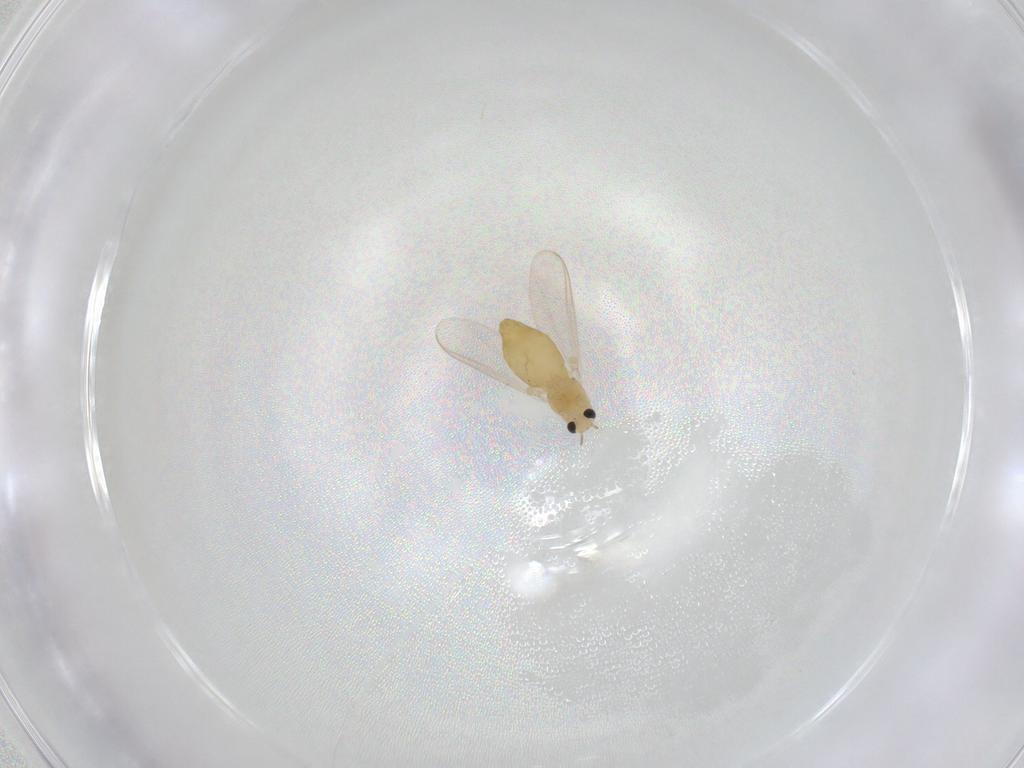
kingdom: Animalia
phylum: Arthropoda
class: Insecta
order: Diptera
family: Chironomidae
